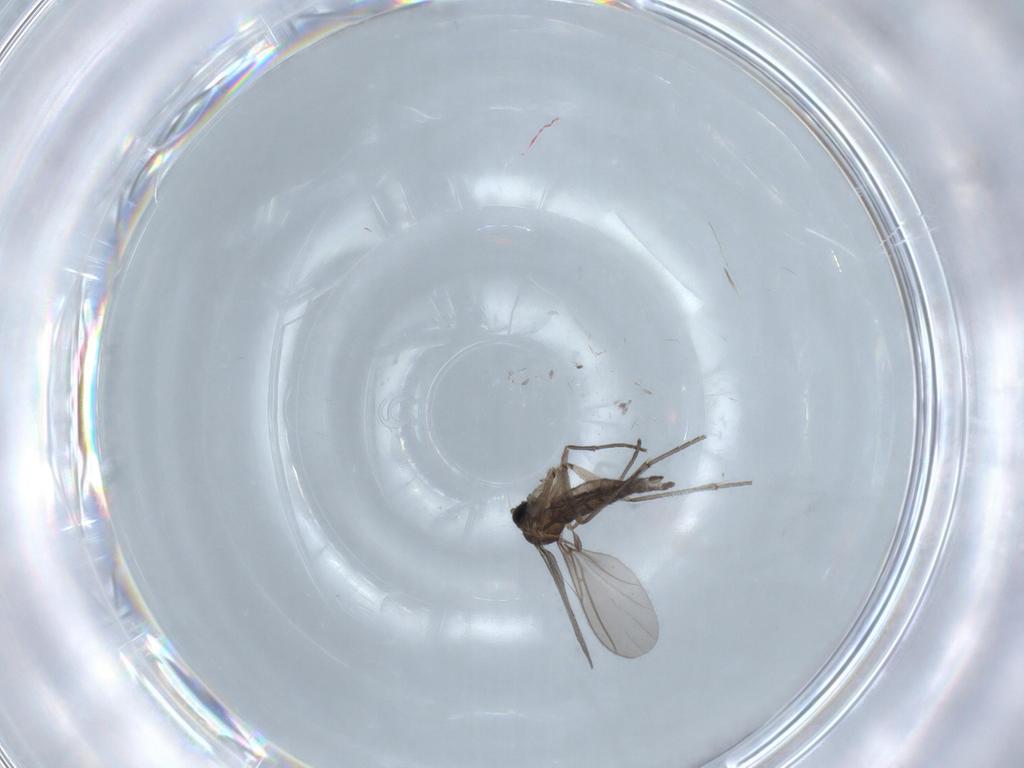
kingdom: Animalia
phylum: Arthropoda
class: Insecta
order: Diptera
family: Sciaridae
